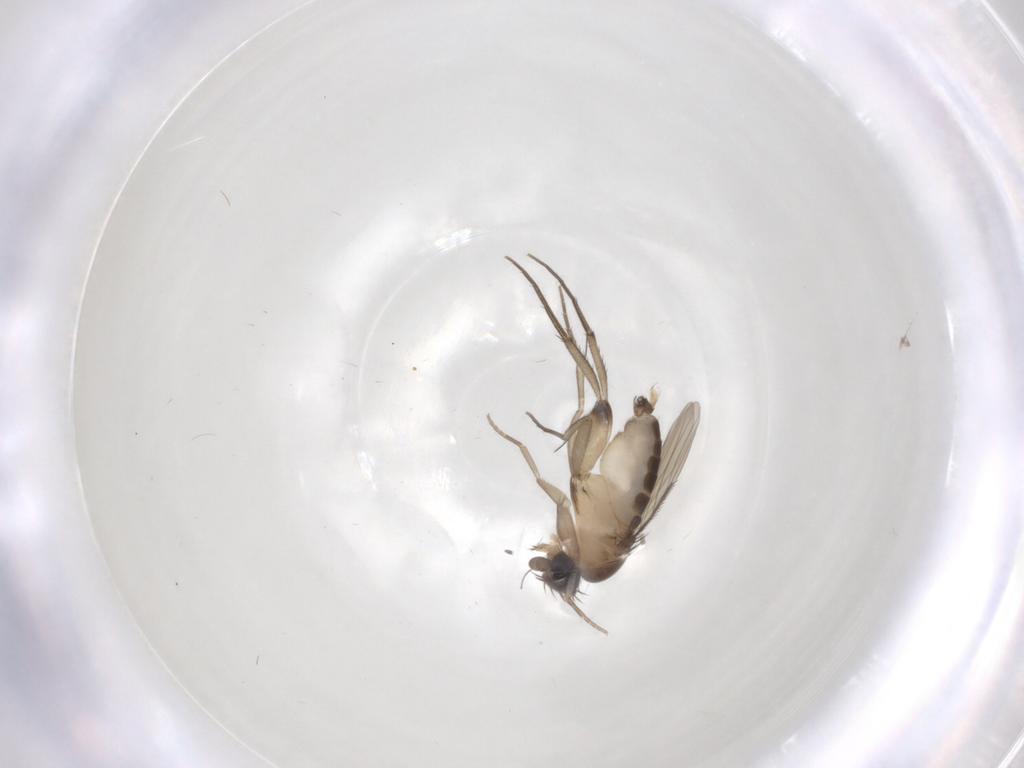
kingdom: Animalia
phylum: Arthropoda
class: Insecta
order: Diptera
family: Phoridae
